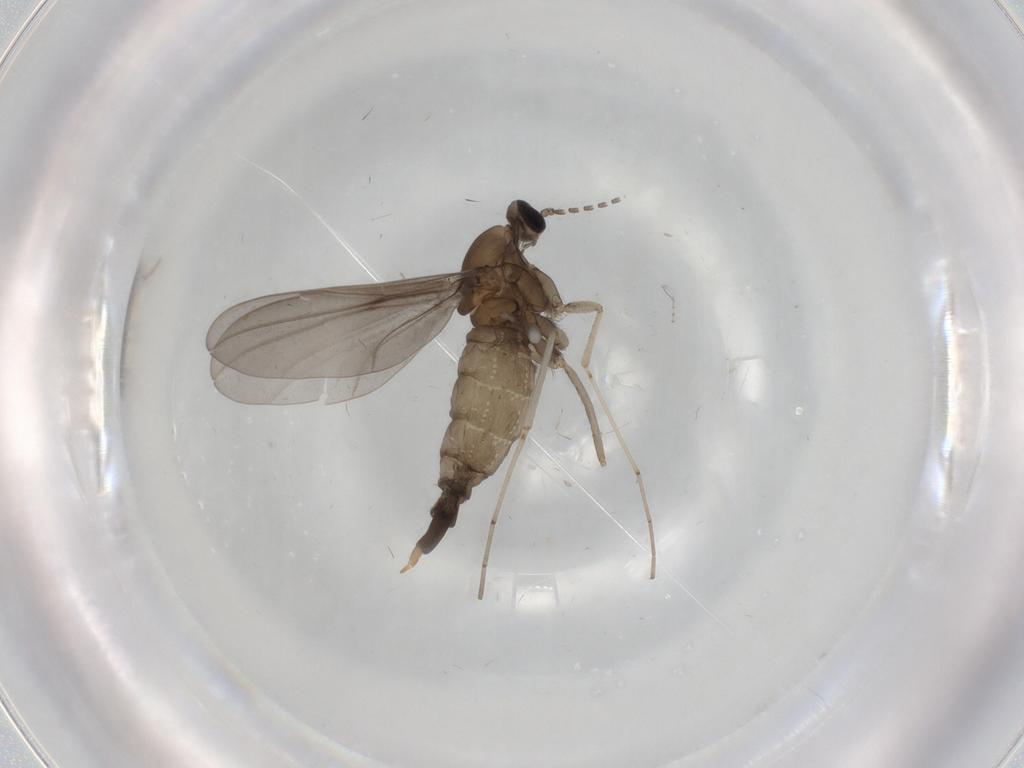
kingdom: Animalia
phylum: Arthropoda
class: Insecta
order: Diptera
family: Cecidomyiidae
